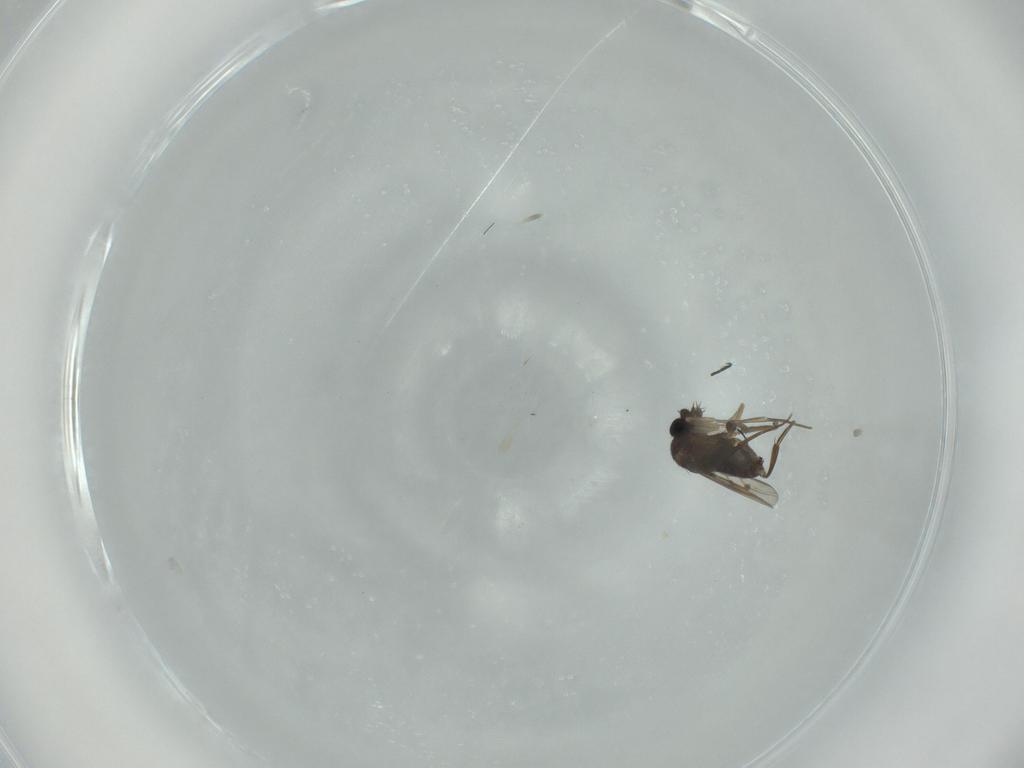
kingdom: Animalia
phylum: Arthropoda
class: Insecta
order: Diptera
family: Phoridae
